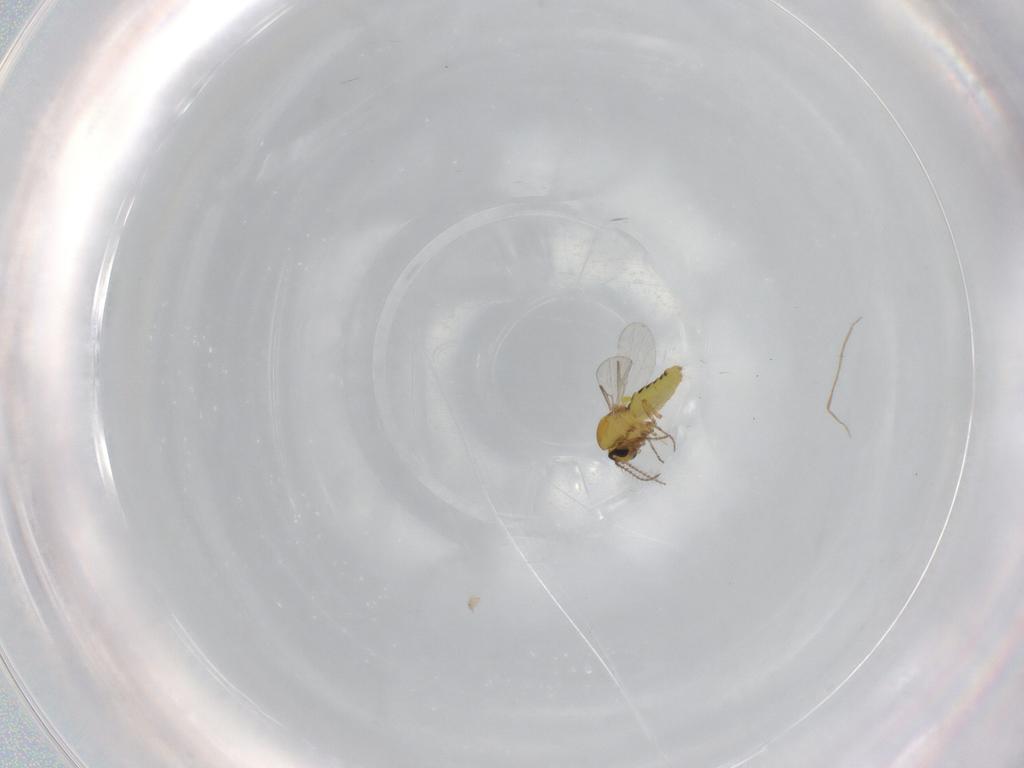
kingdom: Animalia
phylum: Arthropoda
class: Insecta
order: Diptera
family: Ceratopogonidae
